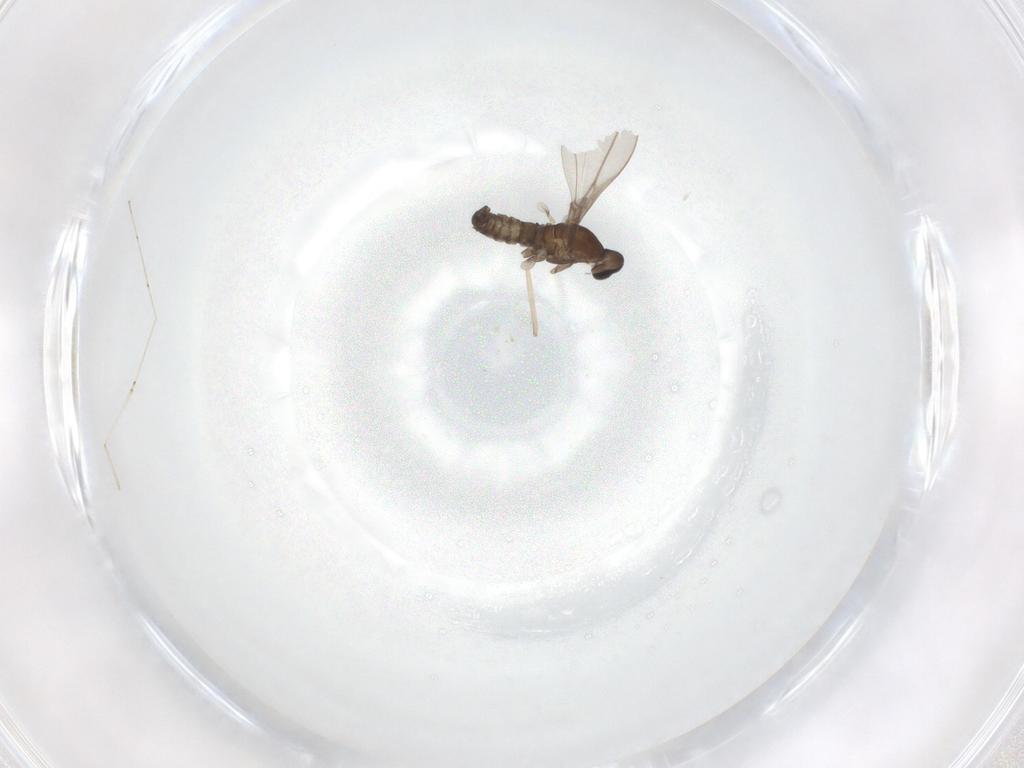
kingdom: Animalia
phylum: Arthropoda
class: Insecta
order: Diptera
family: Cecidomyiidae
